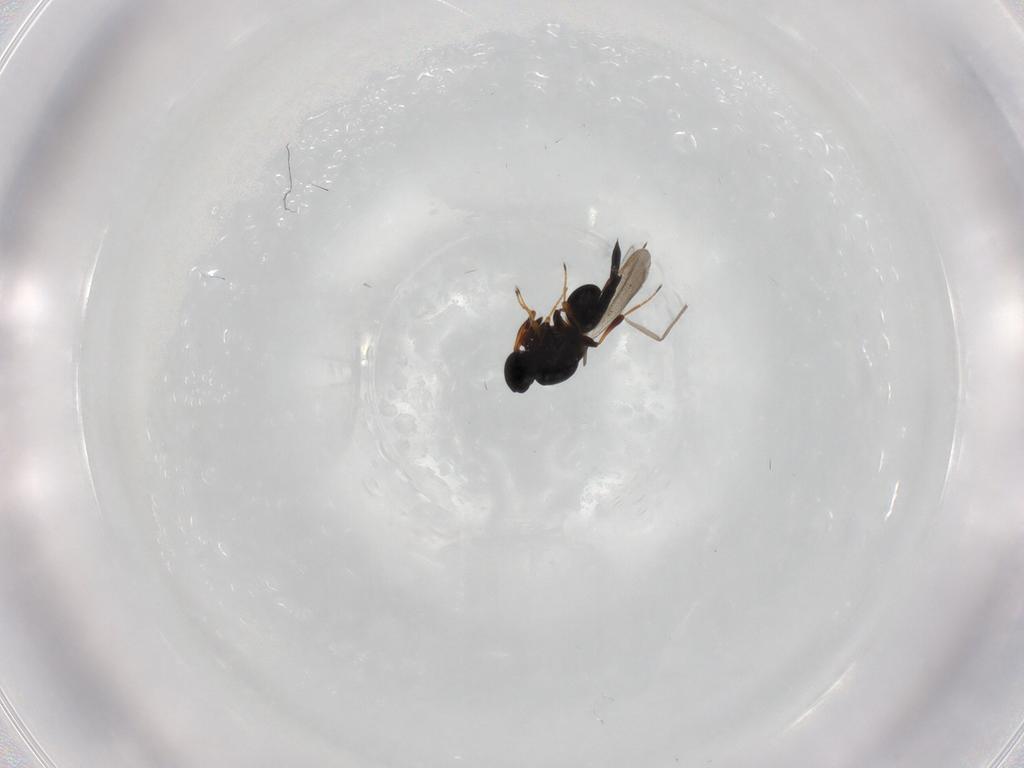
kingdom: Animalia
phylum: Arthropoda
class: Insecta
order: Hymenoptera
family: Platygastridae
